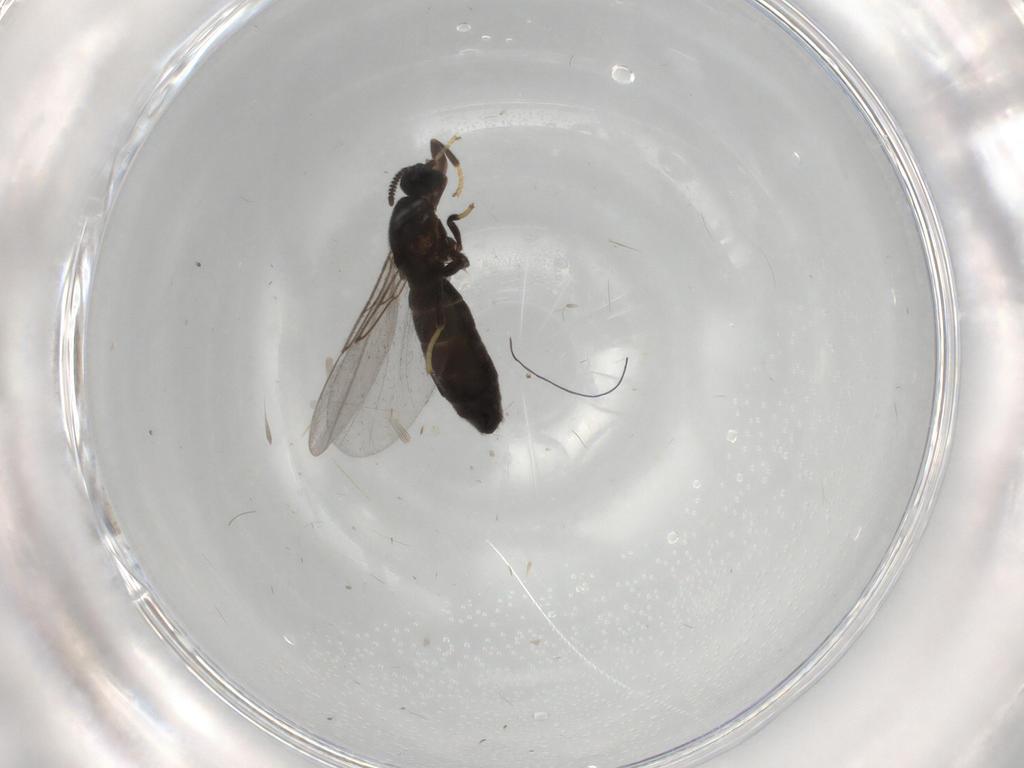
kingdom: Animalia
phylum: Arthropoda
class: Insecta
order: Diptera
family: Scatopsidae
